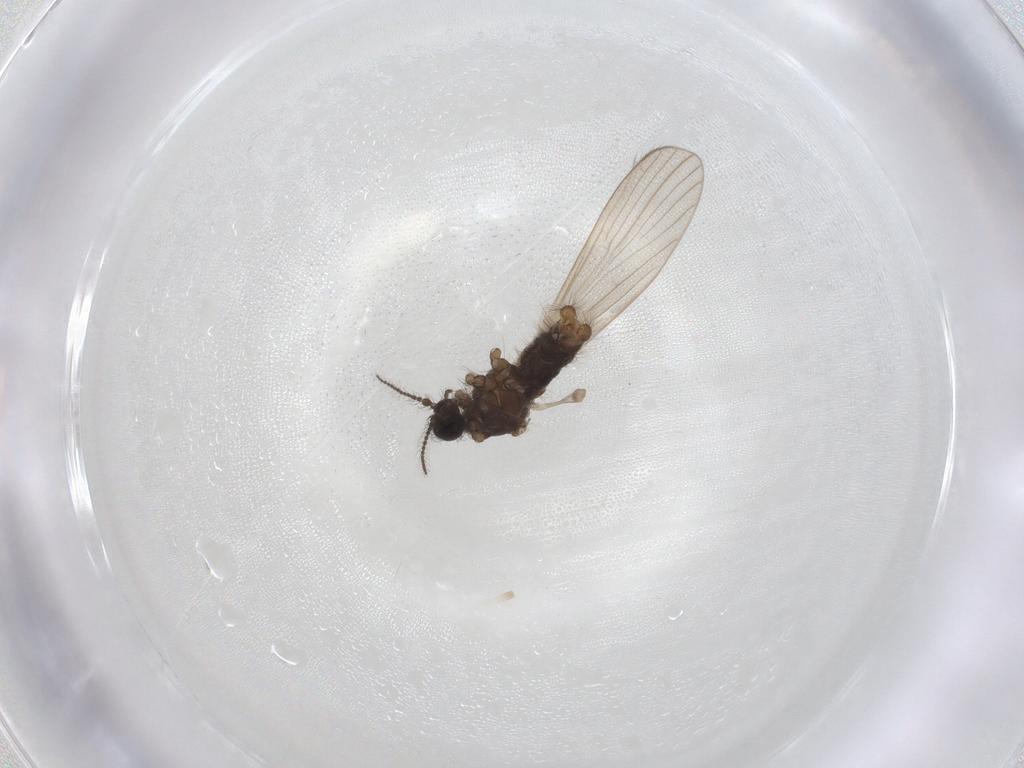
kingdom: Animalia
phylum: Arthropoda
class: Insecta
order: Diptera
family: Limoniidae
